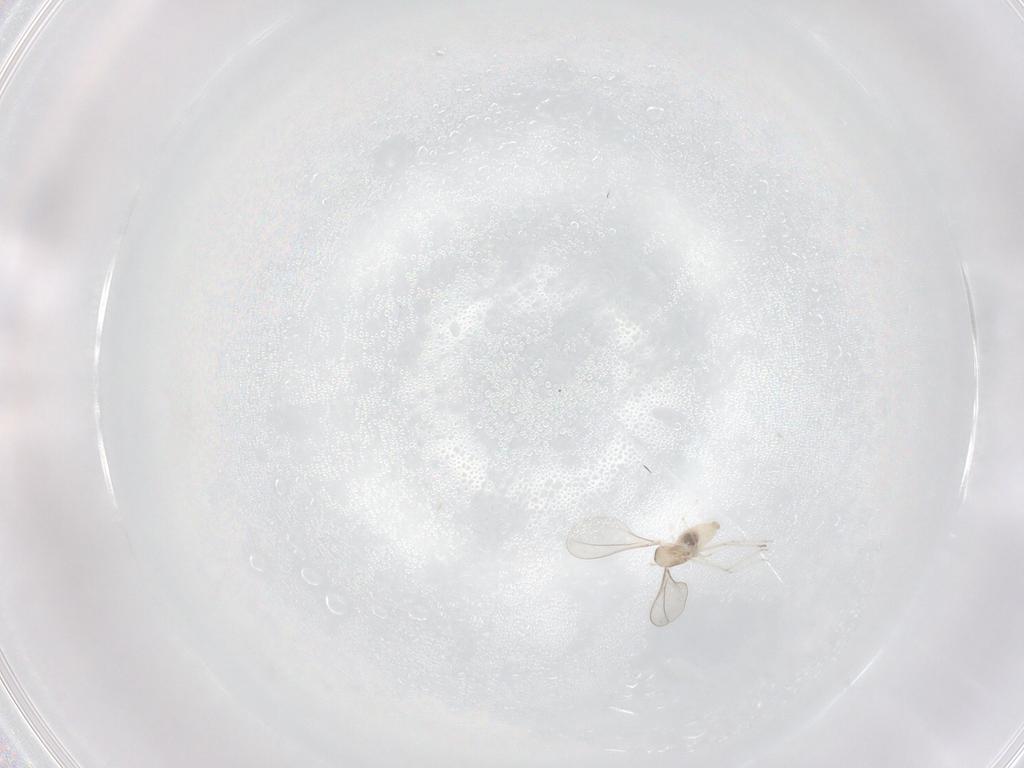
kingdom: Animalia
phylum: Arthropoda
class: Insecta
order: Diptera
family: Cecidomyiidae
